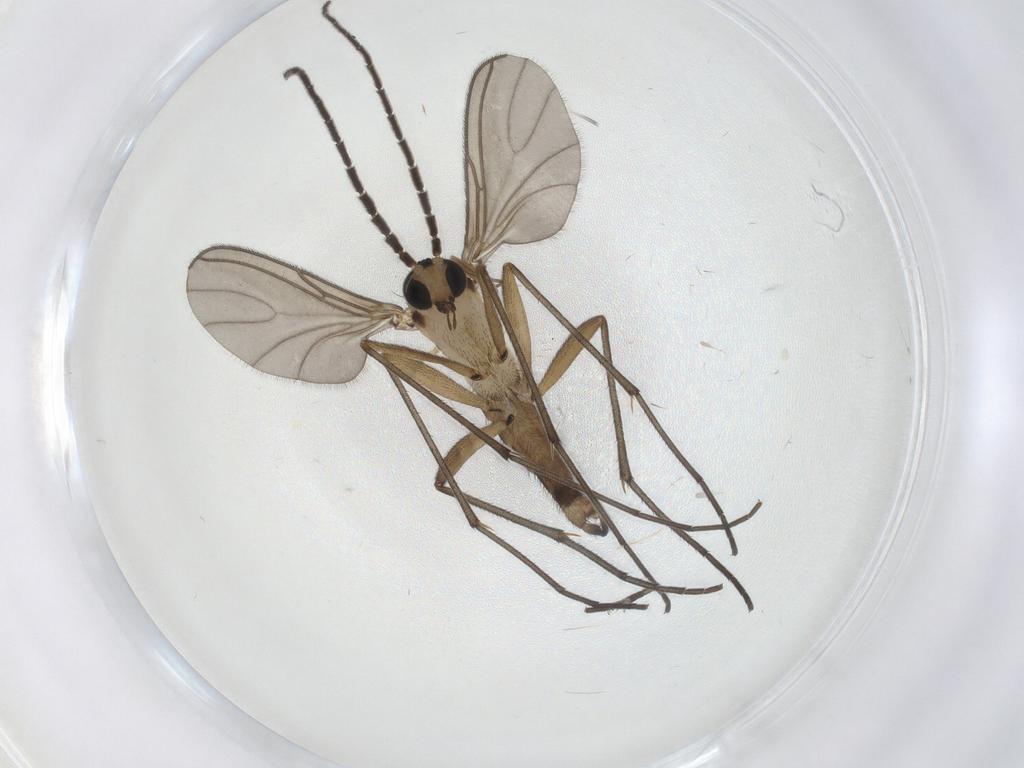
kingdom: Animalia
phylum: Arthropoda
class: Insecta
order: Diptera
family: Sciaridae
